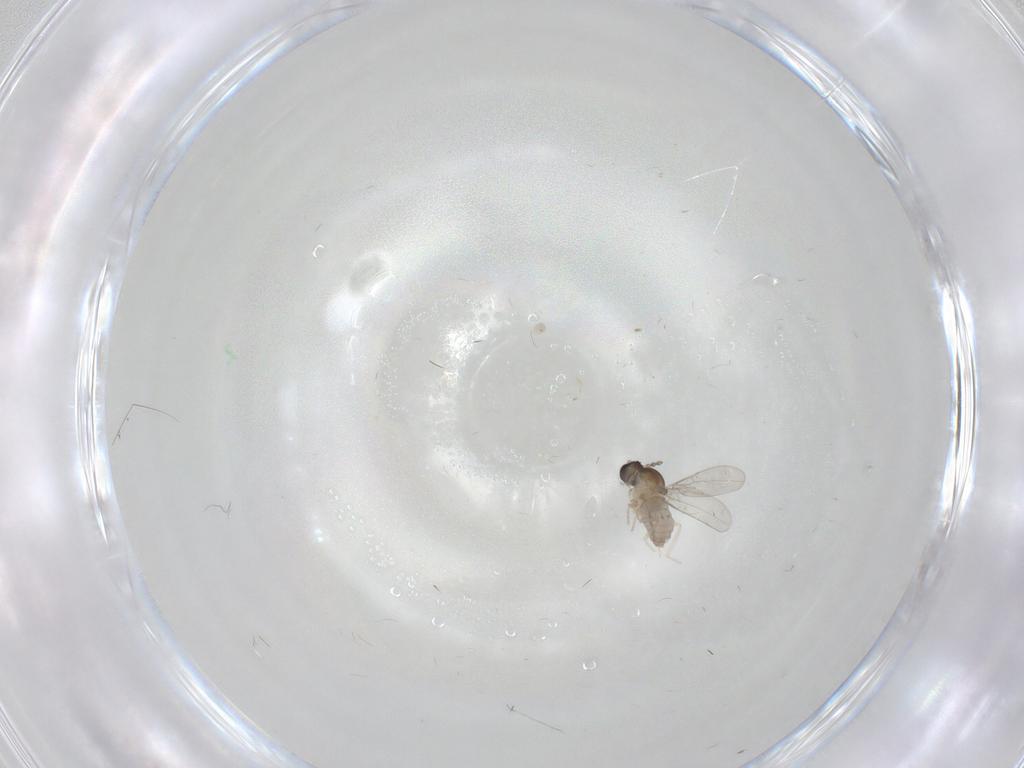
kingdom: Animalia
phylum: Arthropoda
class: Insecta
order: Diptera
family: Cecidomyiidae
